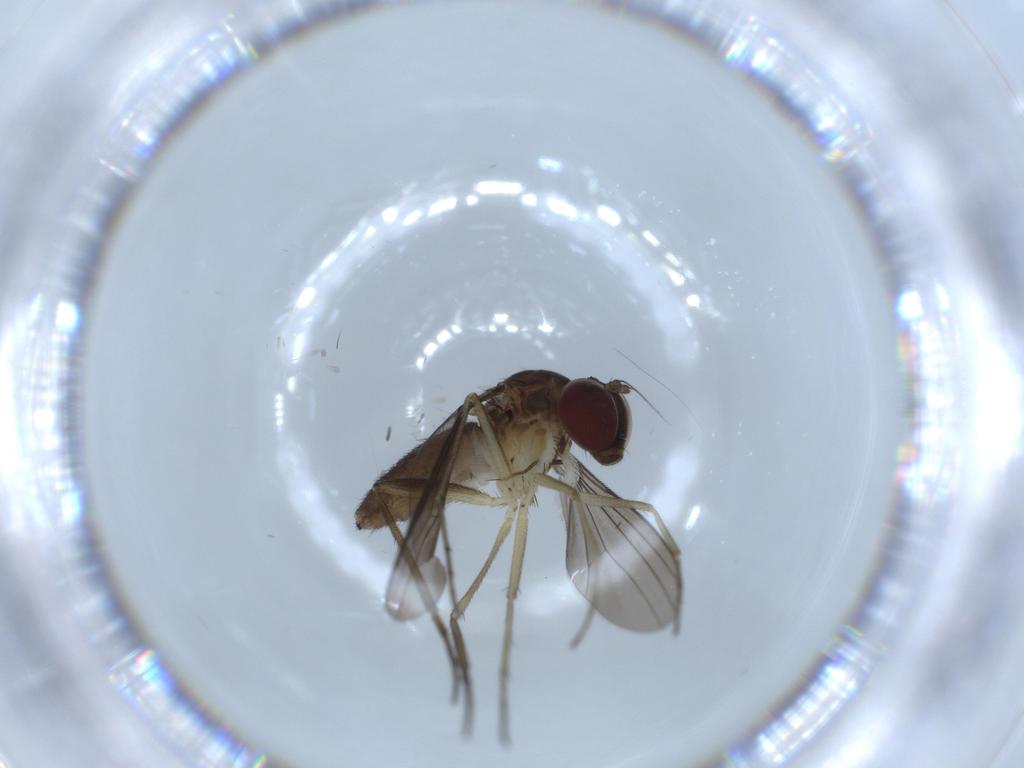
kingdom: Animalia
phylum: Arthropoda
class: Insecta
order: Diptera
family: Dolichopodidae
